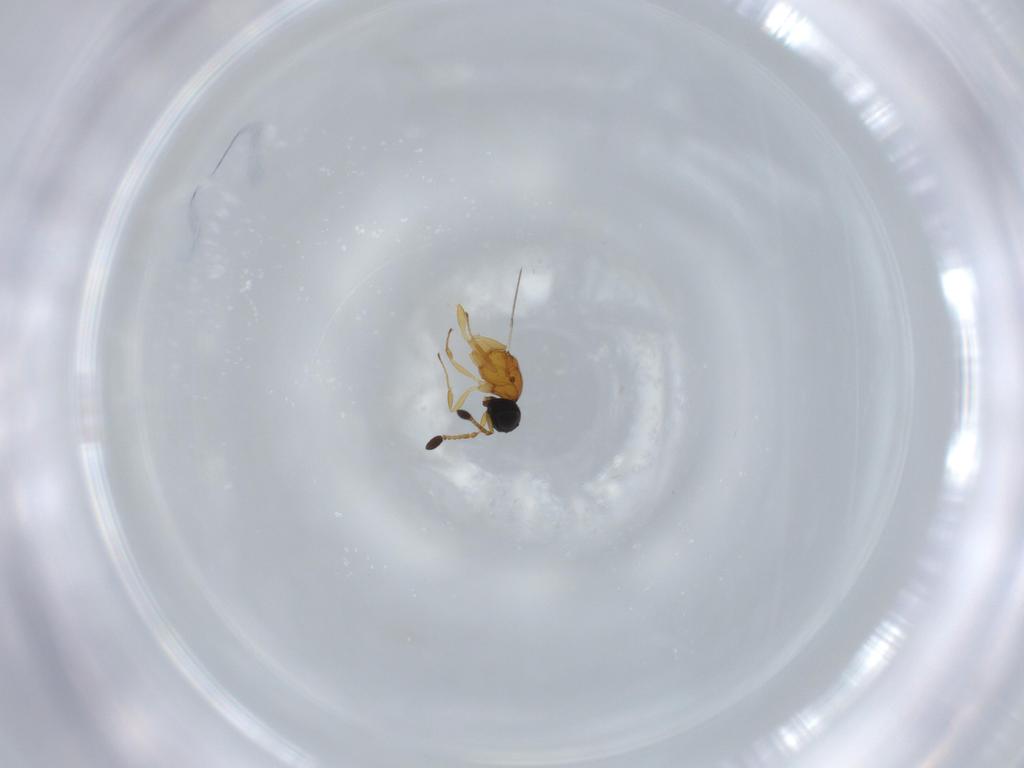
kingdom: Animalia
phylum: Arthropoda
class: Insecta
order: Hymenoptera
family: Scelionidae
